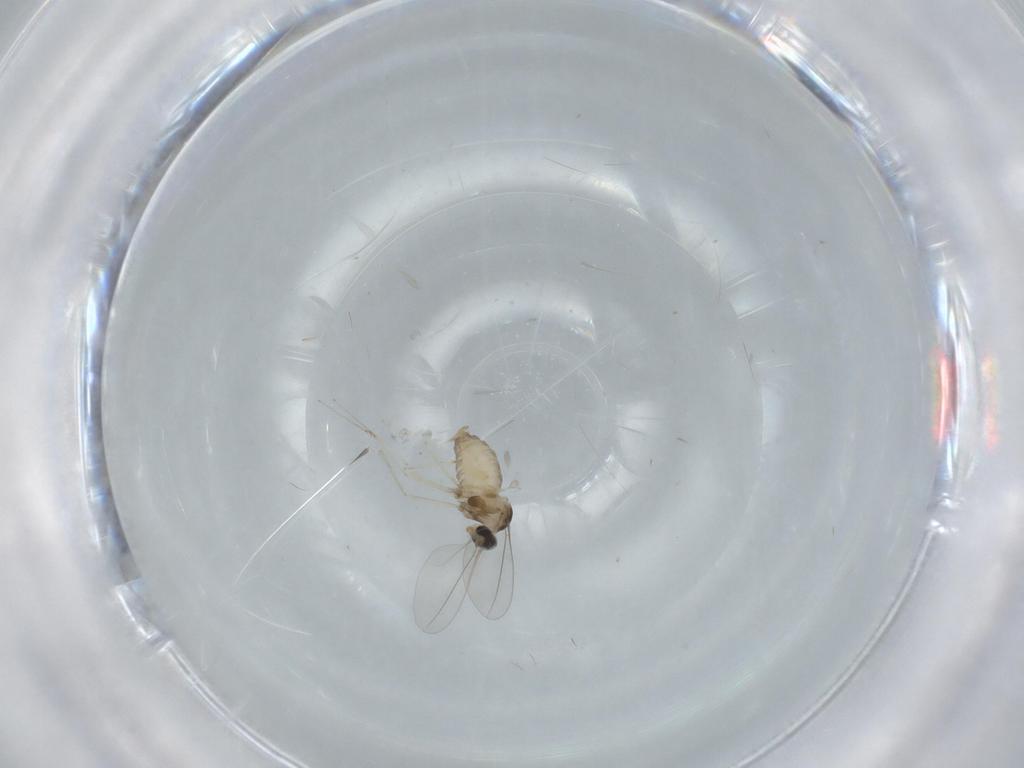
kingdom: Animalia
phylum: Arthropoda
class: Insecta
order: Diptera
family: Cecidomyiidae
